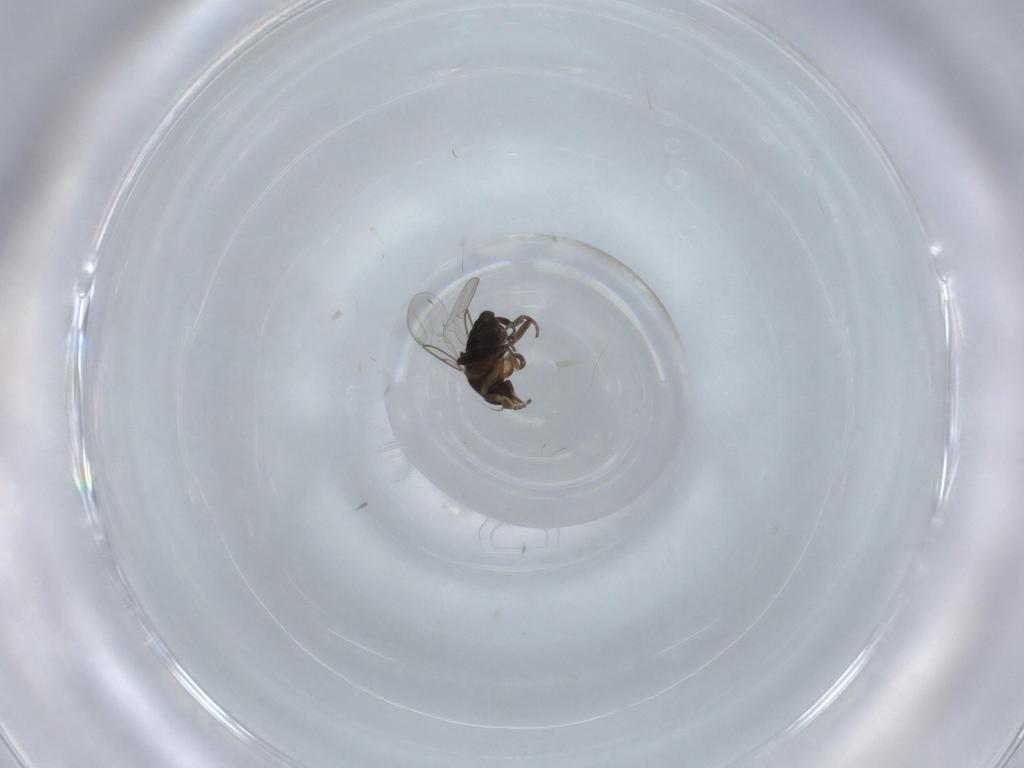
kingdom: Animalia
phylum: Arthropoda
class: Insecta
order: Diptera
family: Phoridae
